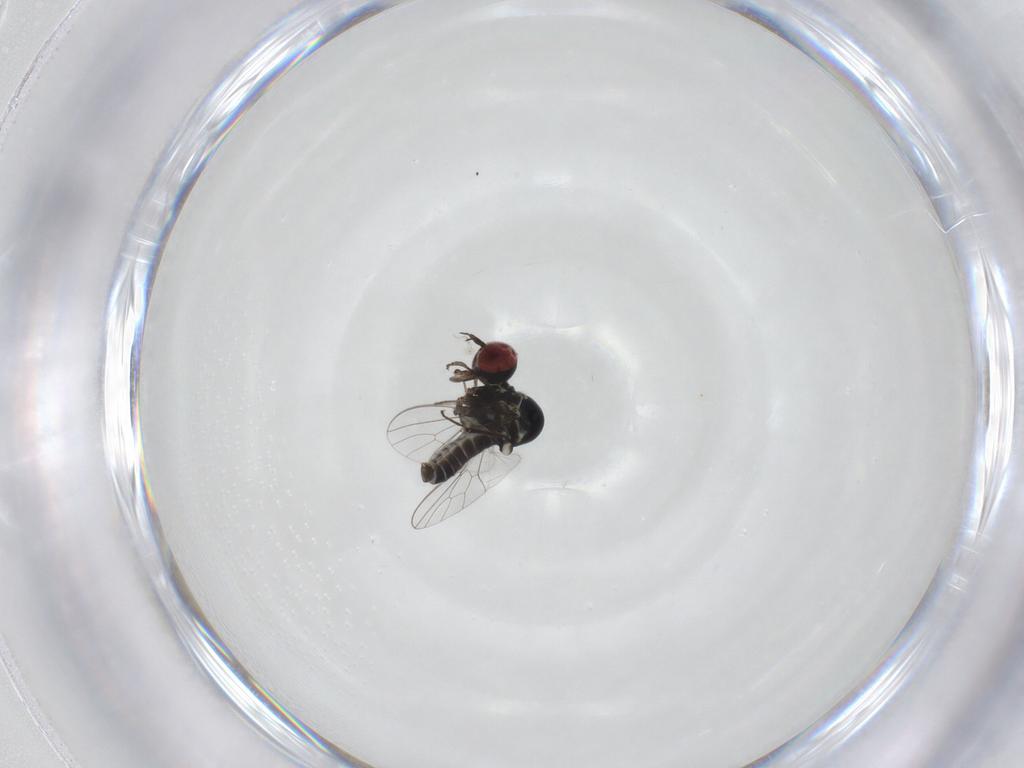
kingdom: Animalia
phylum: Arthropoda
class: Insecta
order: Diptera
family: Mythicomyiidae
